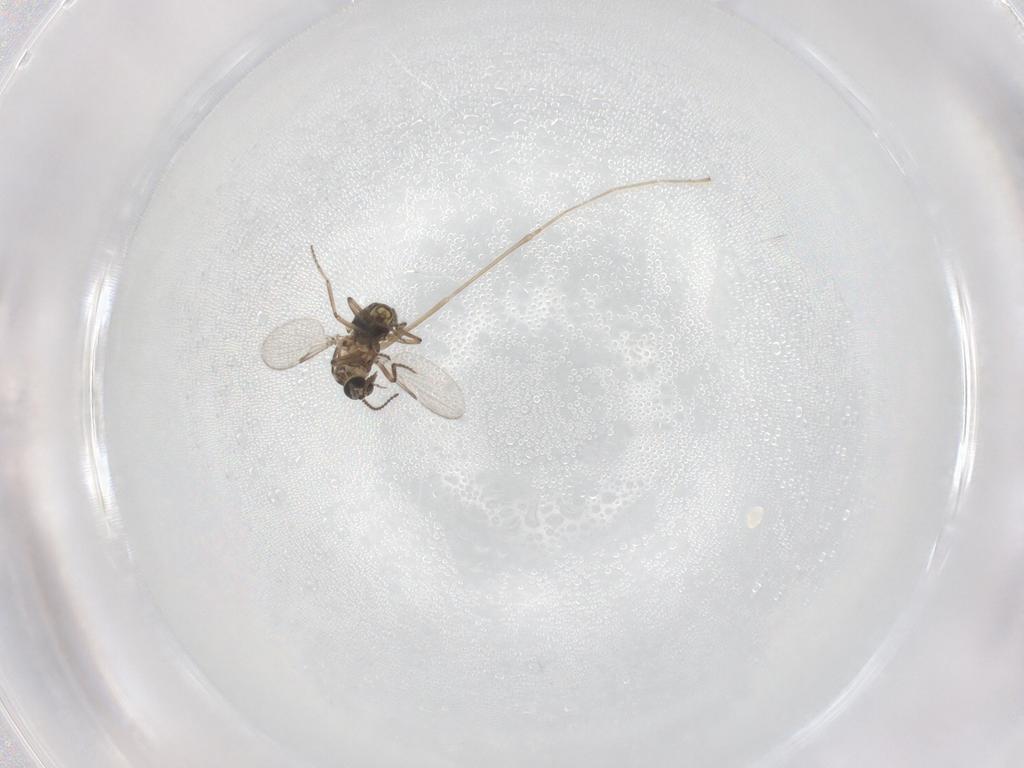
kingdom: Animalia
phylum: Arthropoda
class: Insecta
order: Diptera
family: Ceratopogonidae
